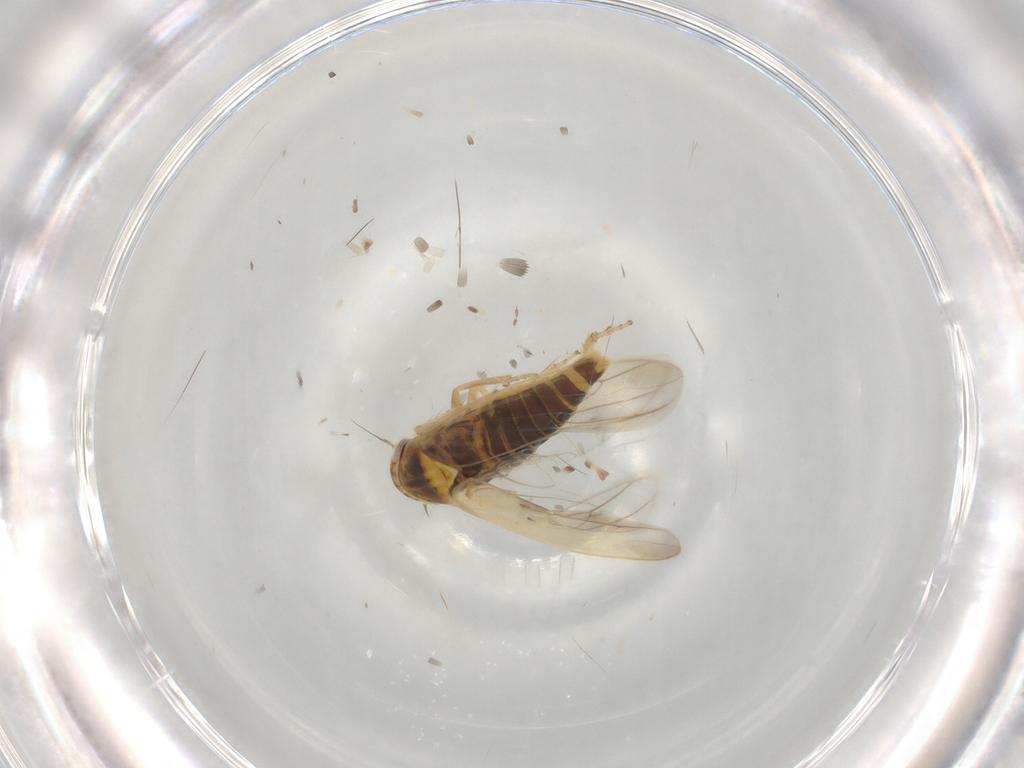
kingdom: Animalia
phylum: Arthropoda
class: Insecta
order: Hemiptera
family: Cicadellidae
